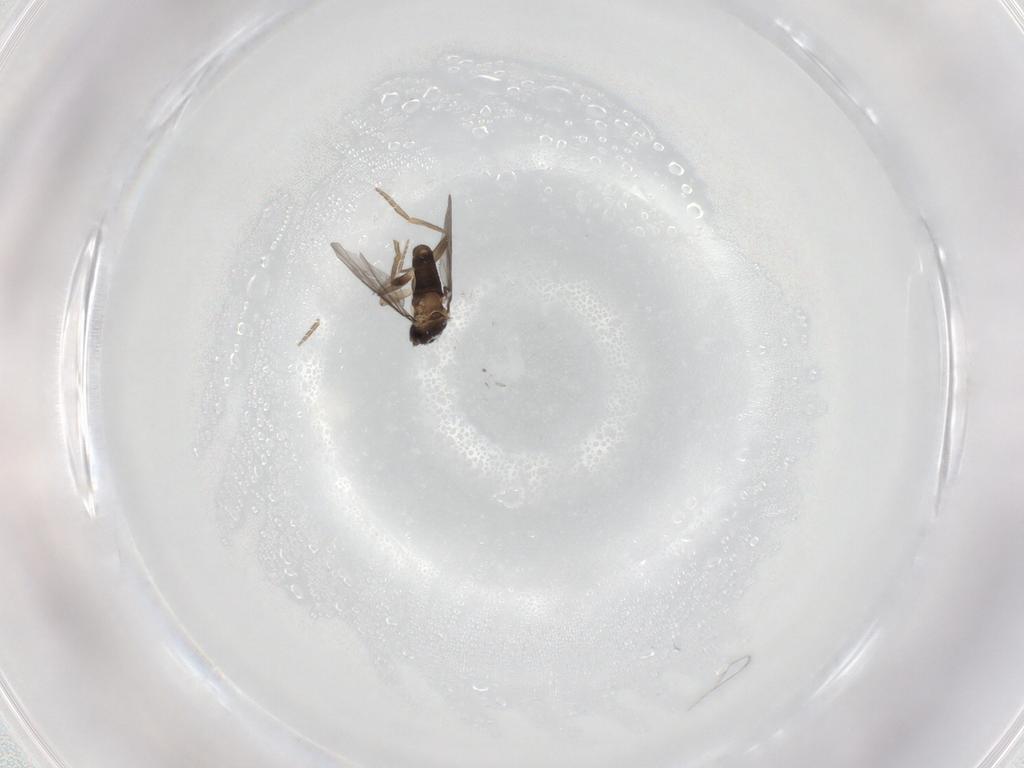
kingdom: Animalia
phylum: Arthropoda
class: Insecta
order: Diptera
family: Phoridae
